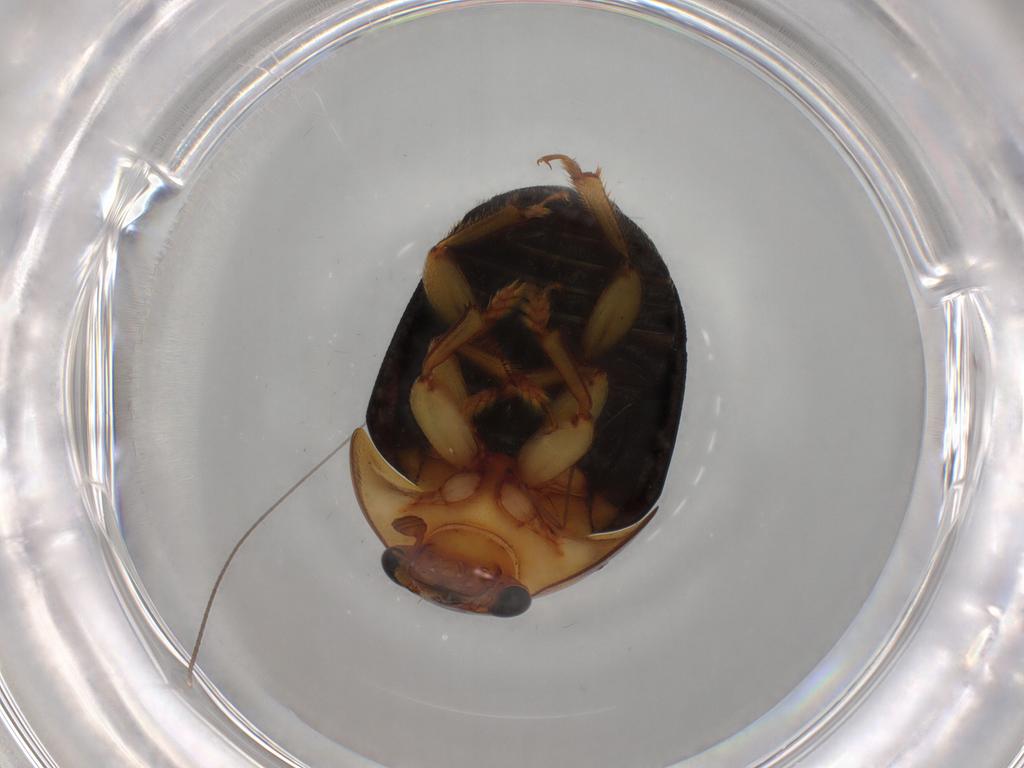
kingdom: Animalia
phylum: Arthropoda
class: Insecta
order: Coleoptera
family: Nitidulidae
